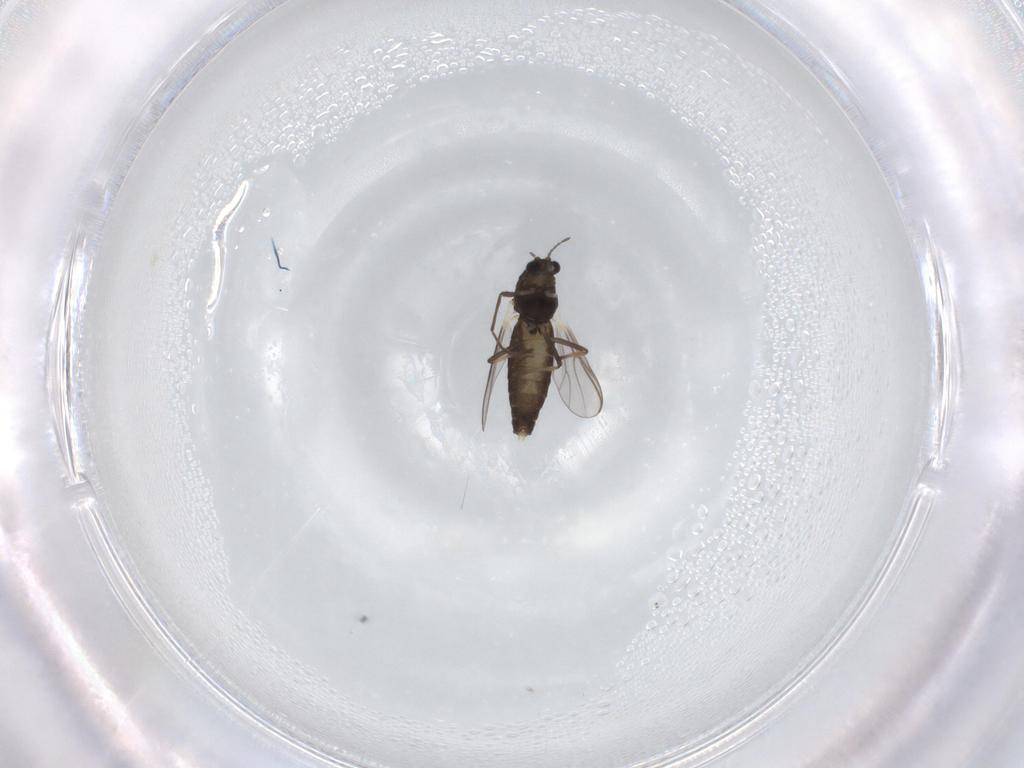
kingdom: Animalia
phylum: Arthropoda
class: Insecta
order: Diptera
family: Chironomidae
